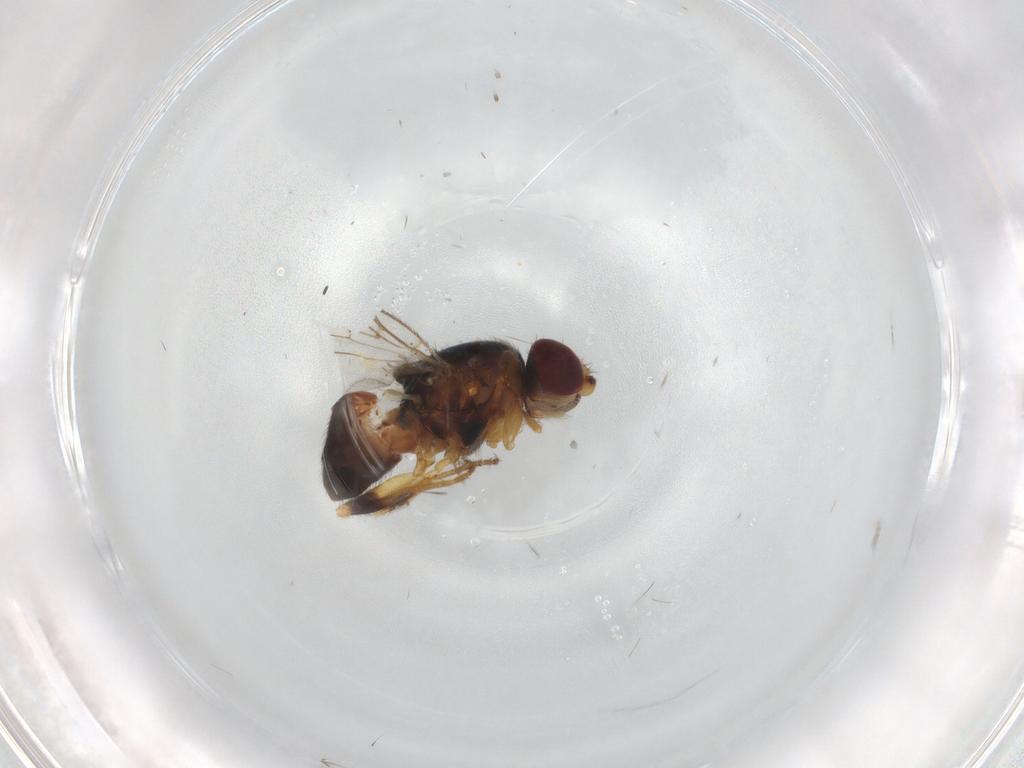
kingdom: Animalia
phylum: Arthropoda
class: Insecta
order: Diptera
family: Chloropidae
